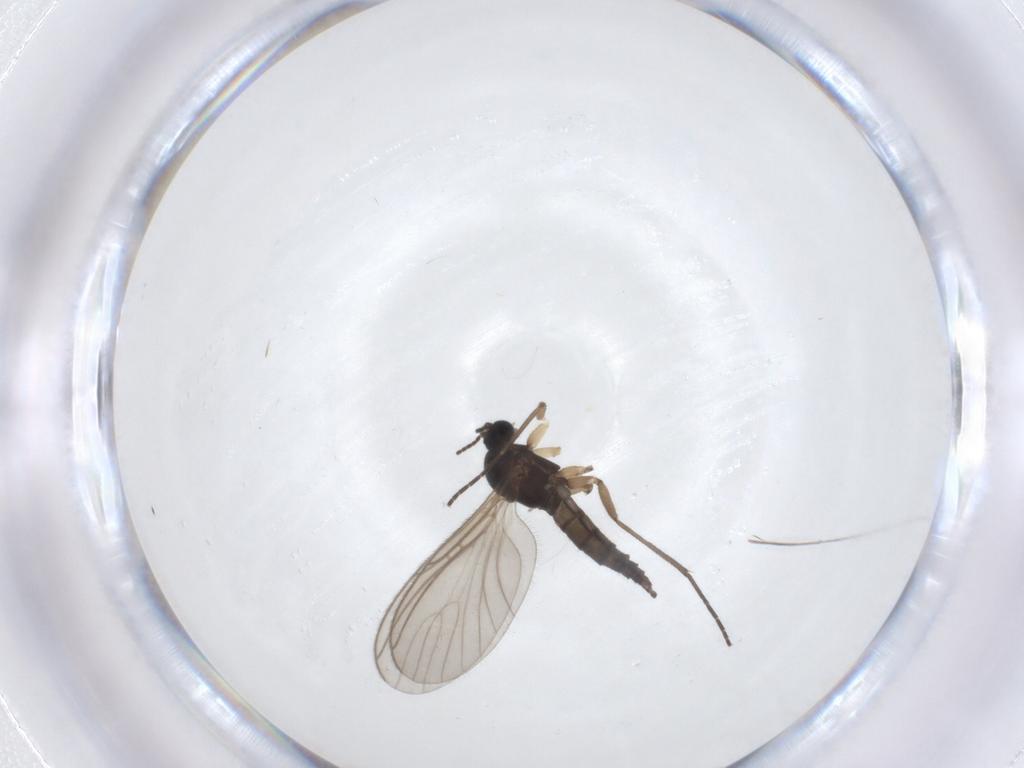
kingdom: Animalia
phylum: Arthropoda
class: Insecta
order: Diptera
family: Sciaridae
